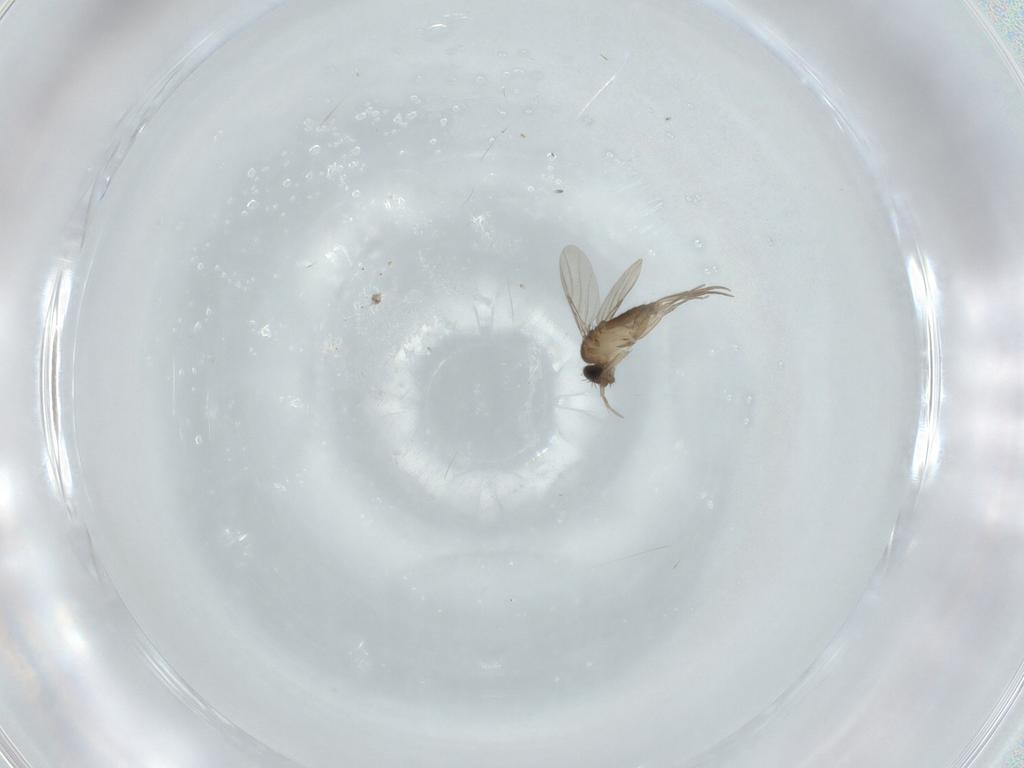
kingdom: Animalia
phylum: Arthropoda
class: Insecta
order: Diptera
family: Phoridae
